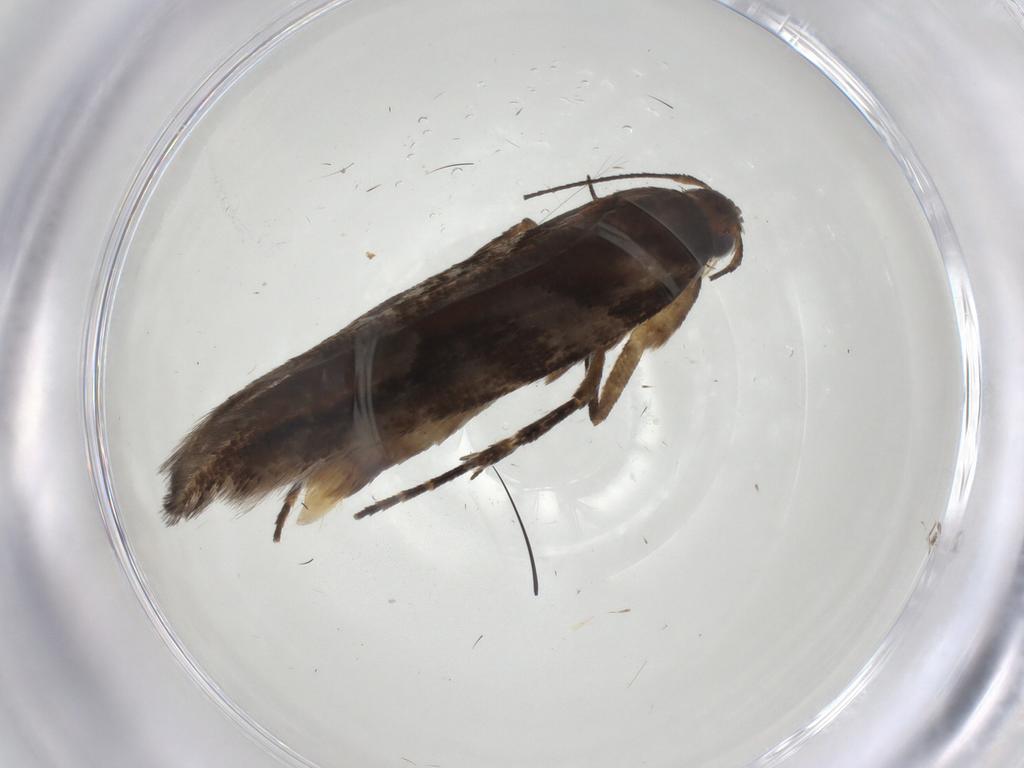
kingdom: Animalia
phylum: Arthropoda
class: Insecta
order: Lepidoptera
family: Gelechiidae
